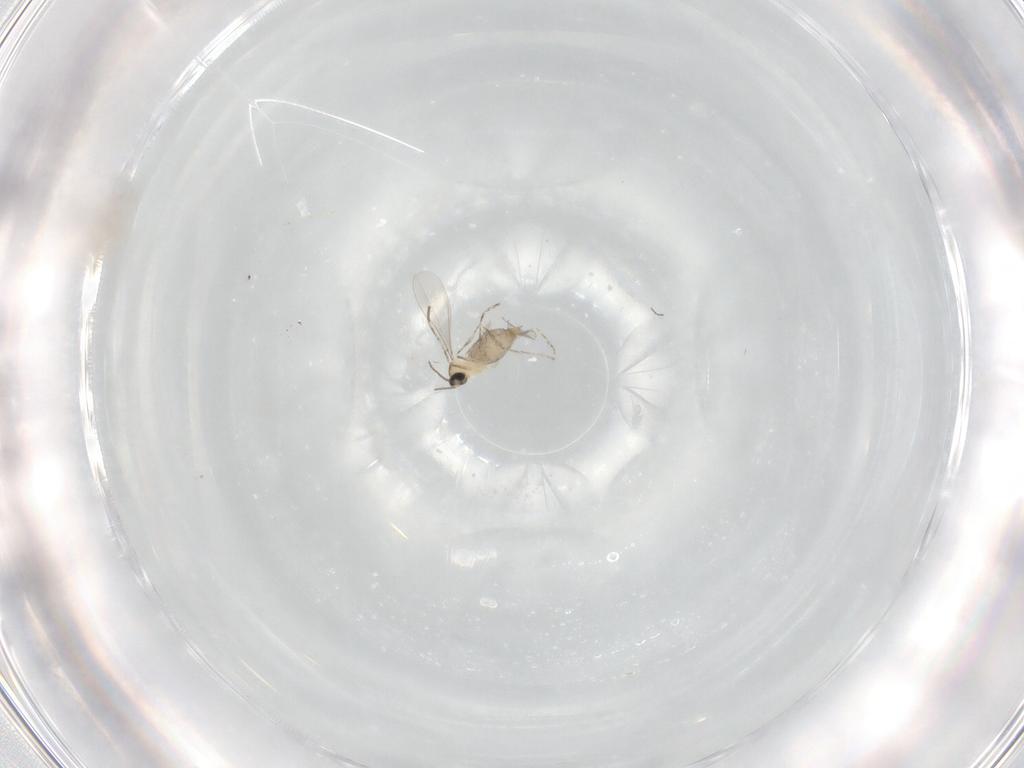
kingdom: Animalia
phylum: Arthropoda
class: Insecta
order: Diptera
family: Cecidomyiidae
